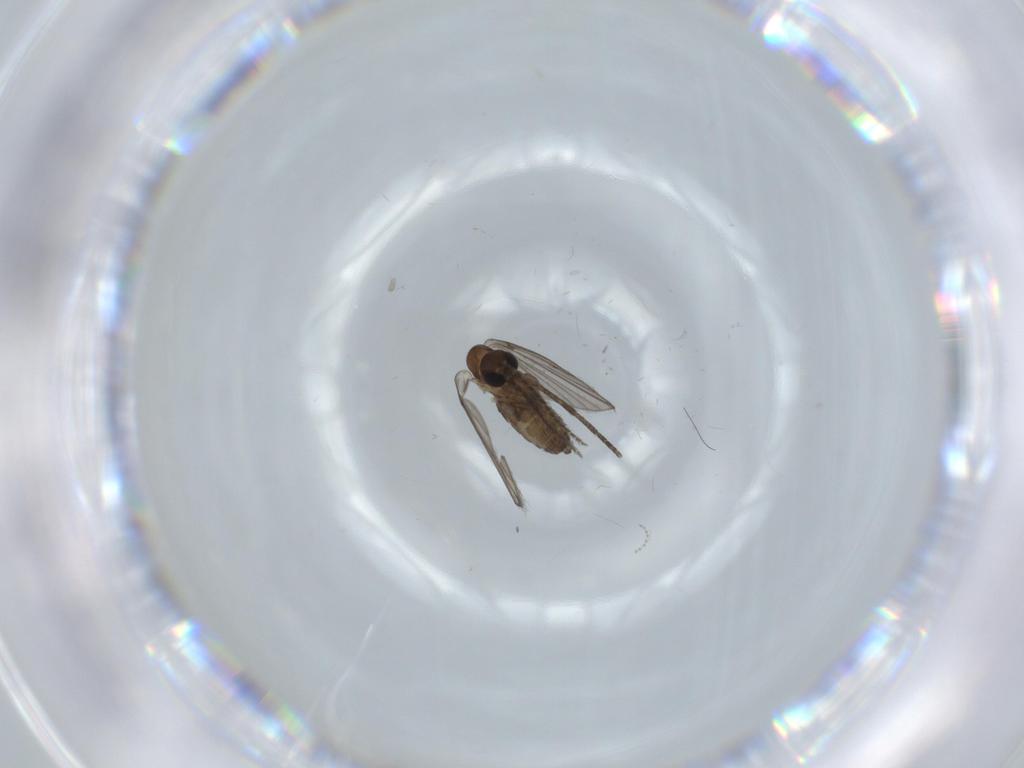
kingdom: Animalia
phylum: Arthropoda
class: Insecta
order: Diptera
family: Psychodidae
